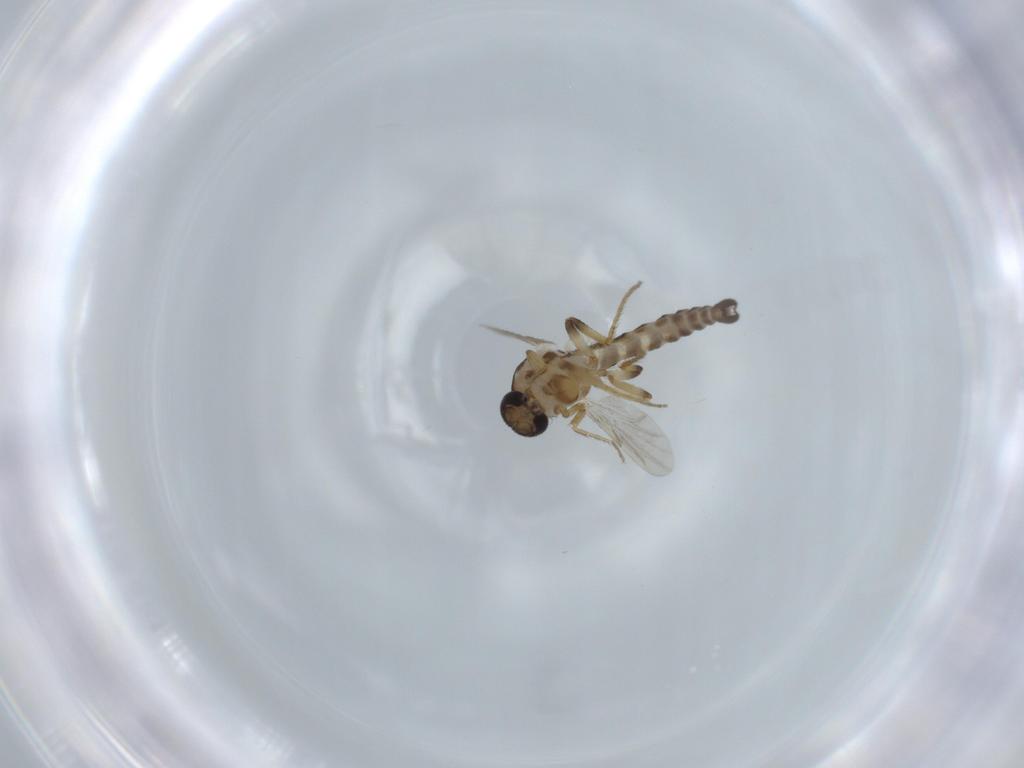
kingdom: Animalia
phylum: Arthropoda
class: Insecta
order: Diptera
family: Ceratopogonidae
